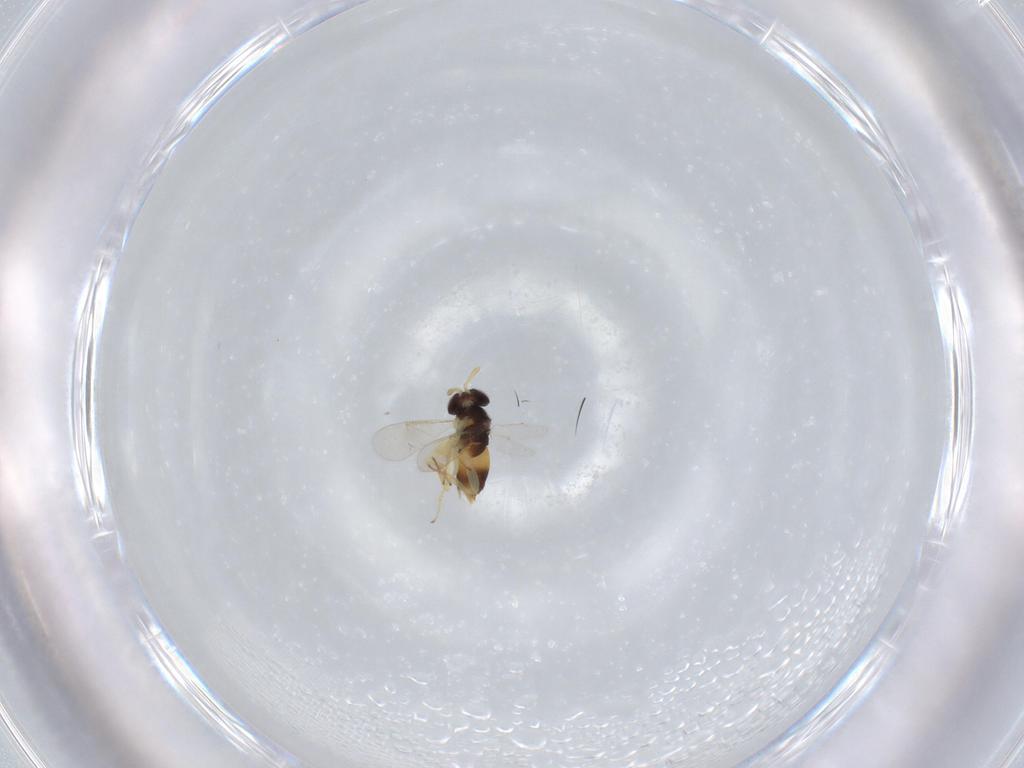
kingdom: Animalia
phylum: Arthropoda
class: Insecta
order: Hymenoptera
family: Aphelinidae
